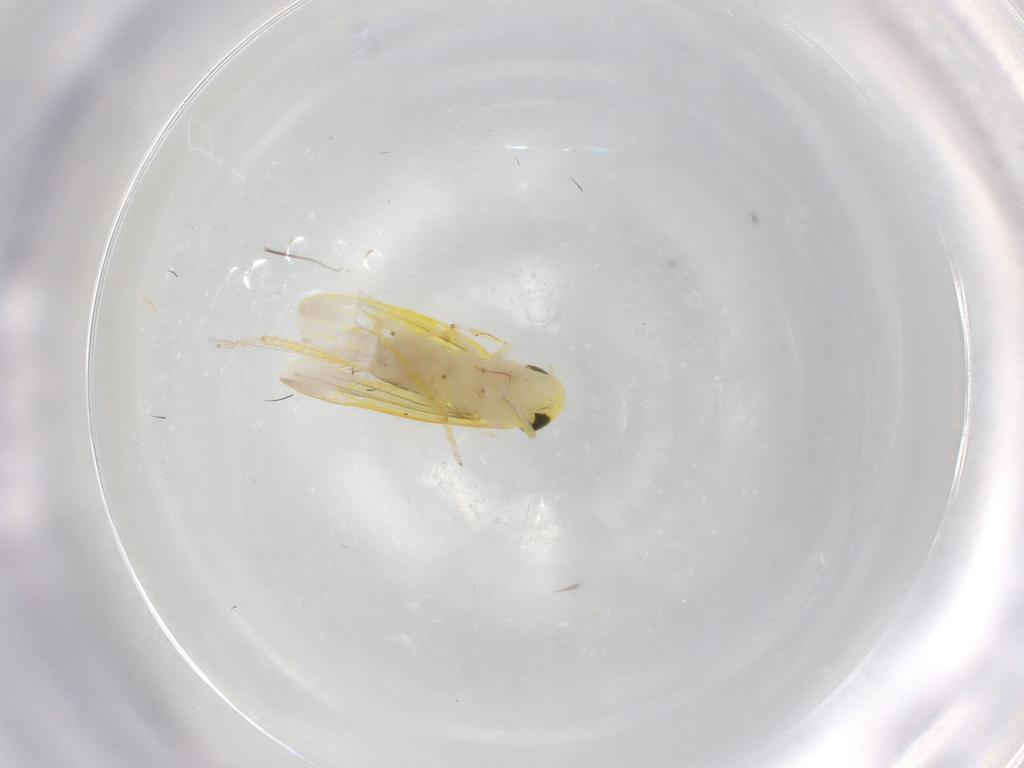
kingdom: Animalia
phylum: Arthropoda
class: Insecta
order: Hemiptera
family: Cicadellidae
